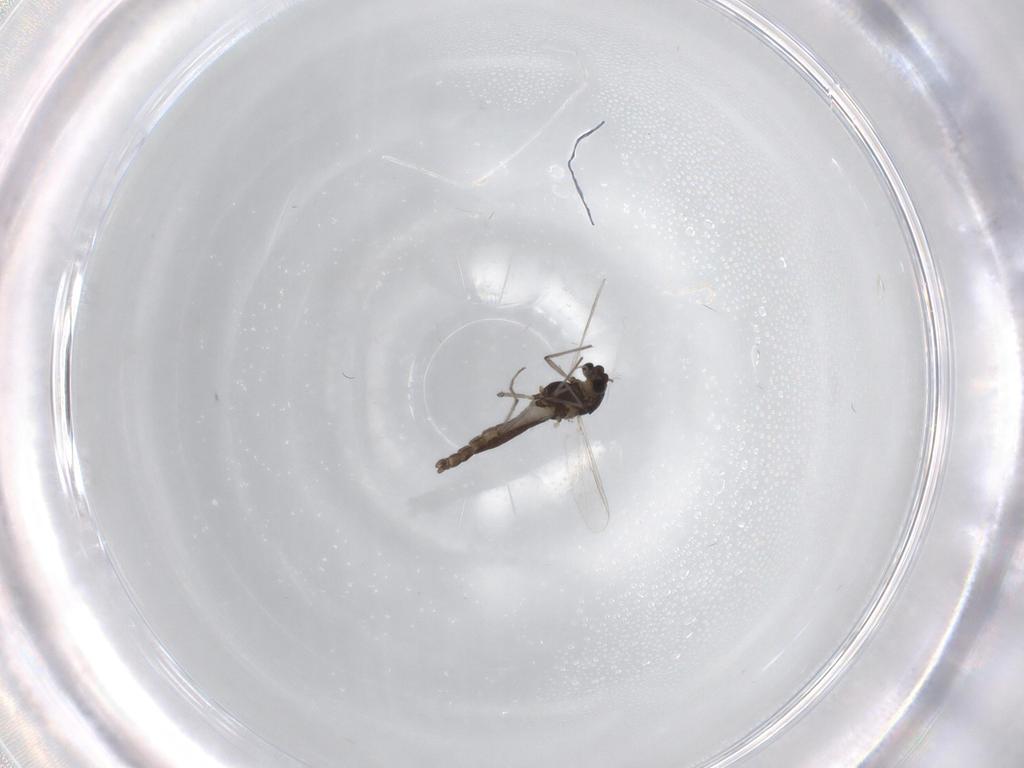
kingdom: Animalia
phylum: Arthropoda
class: Insecta
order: Diptera
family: Chironomidae
